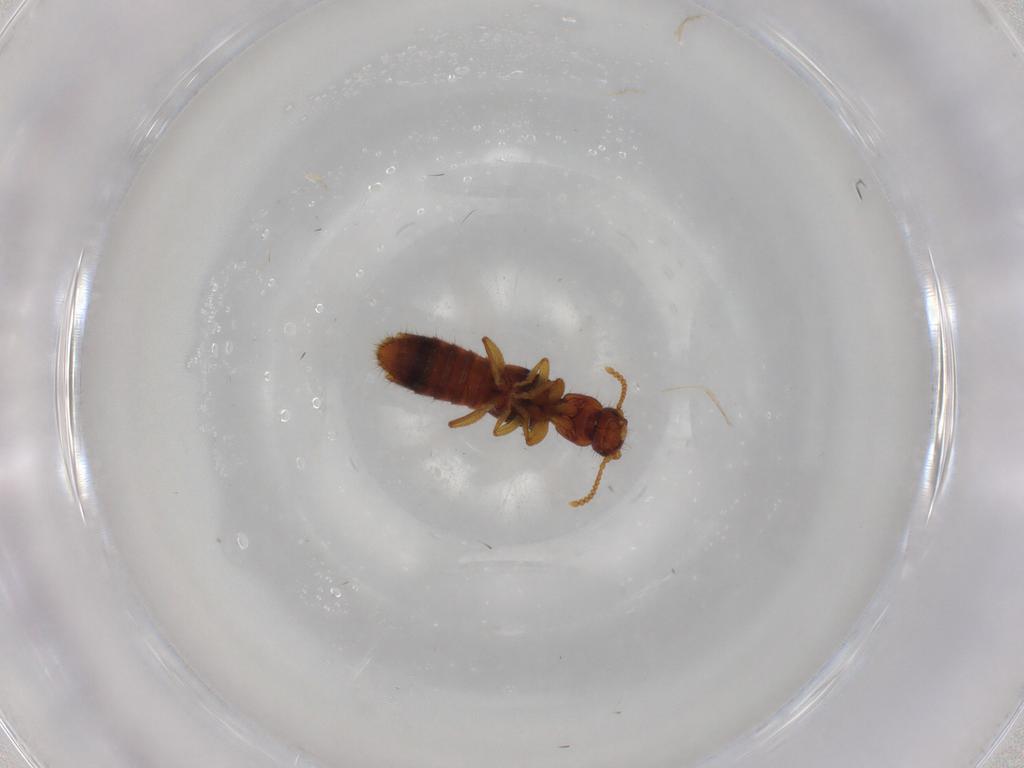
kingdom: Animalia
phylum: Arthropoda
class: Insecta
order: Coleoptera
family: Staphylinidae
